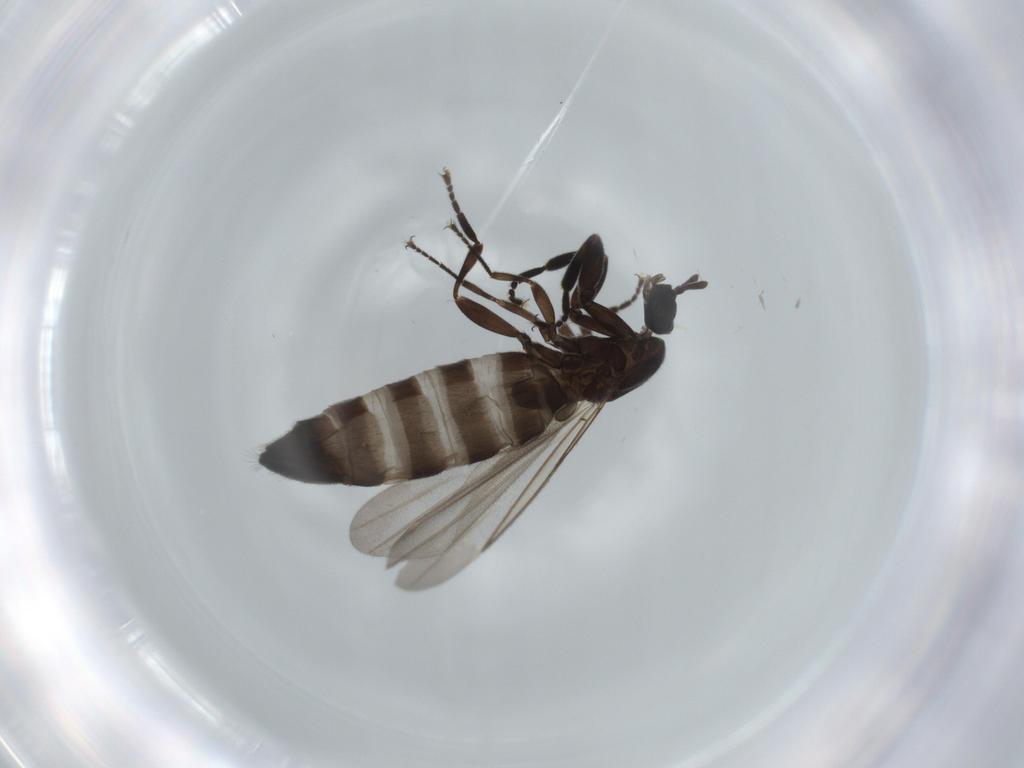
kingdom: Animalia
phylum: Arthropoda
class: Insecta
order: Diptera
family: Scatopsidae
